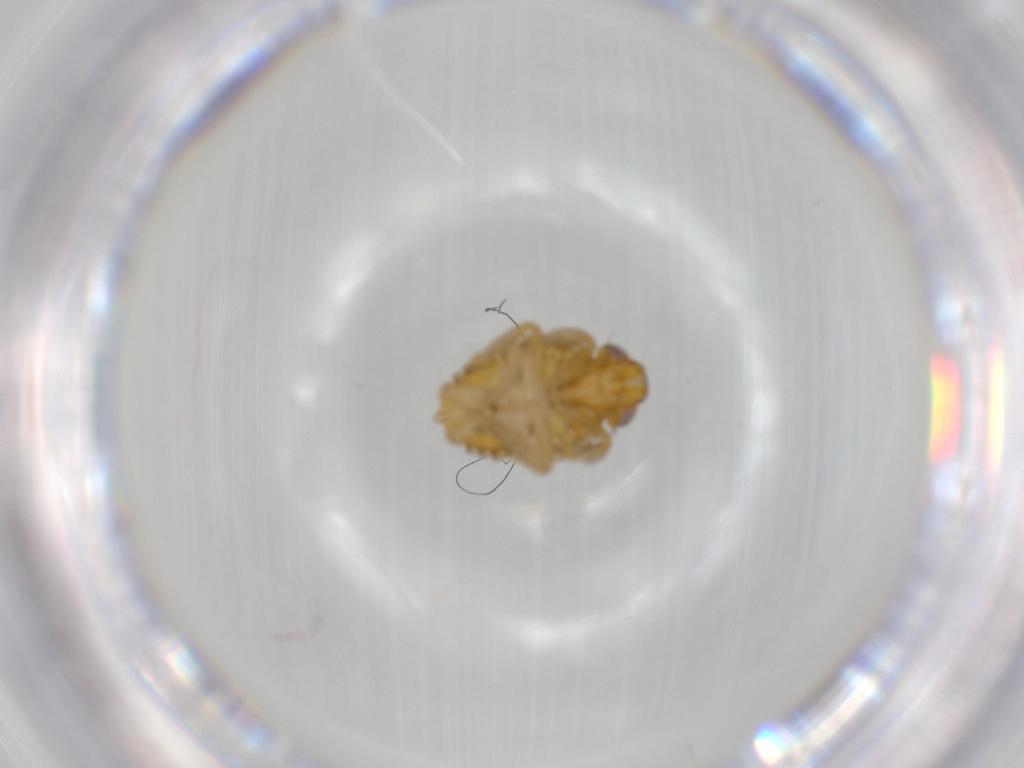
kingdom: Animalia
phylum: Arthropoda
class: Insecta
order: Hemiptera
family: Issidae
